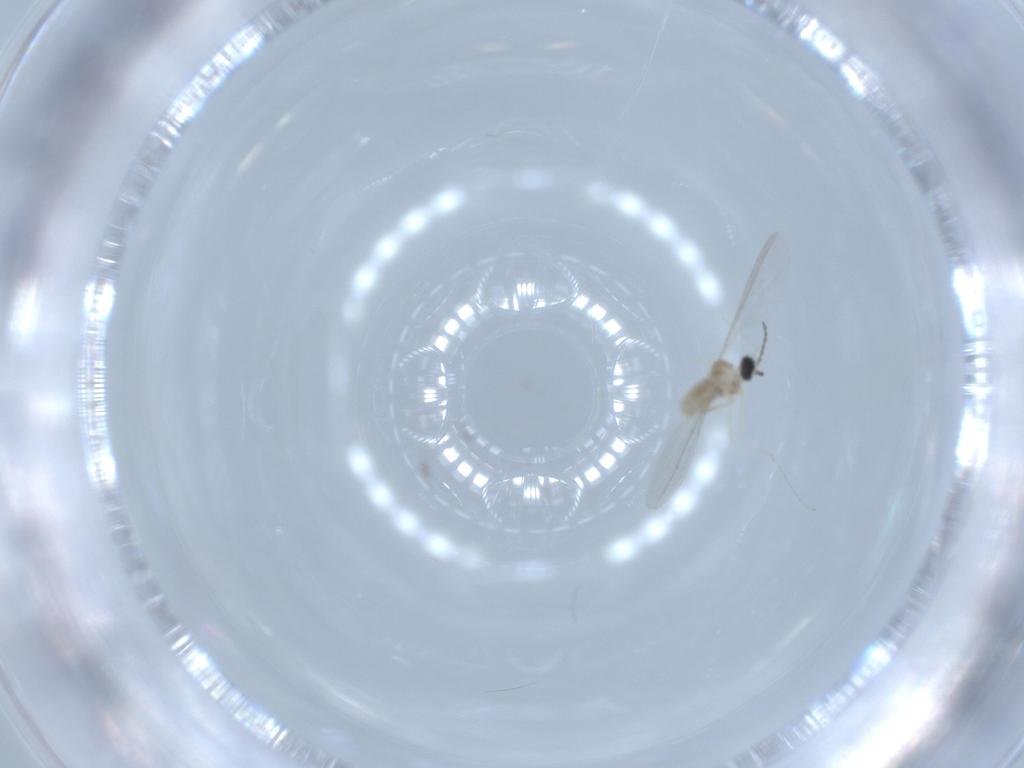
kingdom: Animalia
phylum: Arthropoda
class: Insecta
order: Diptera
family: Cecidomyiidae
